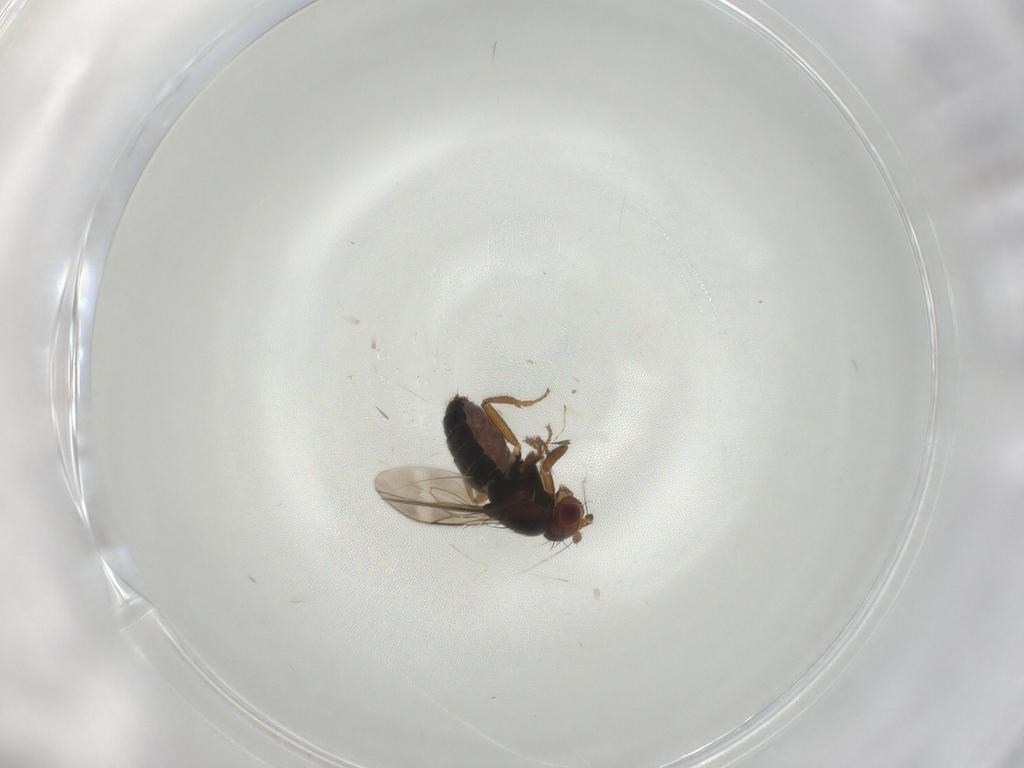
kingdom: Animalia
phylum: Arthropoda
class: Insecta
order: Diptera
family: Sphaeroceridae
